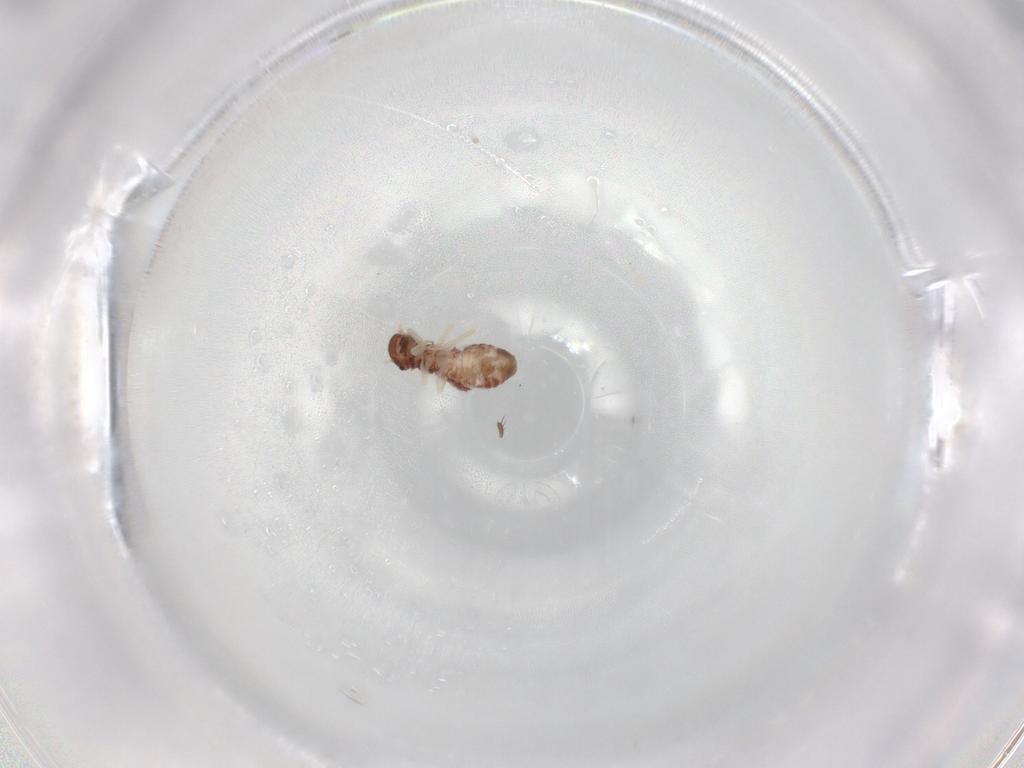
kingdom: Animalia
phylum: Arthropoda
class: Insecta
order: Psocodea
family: Archipsocidae
